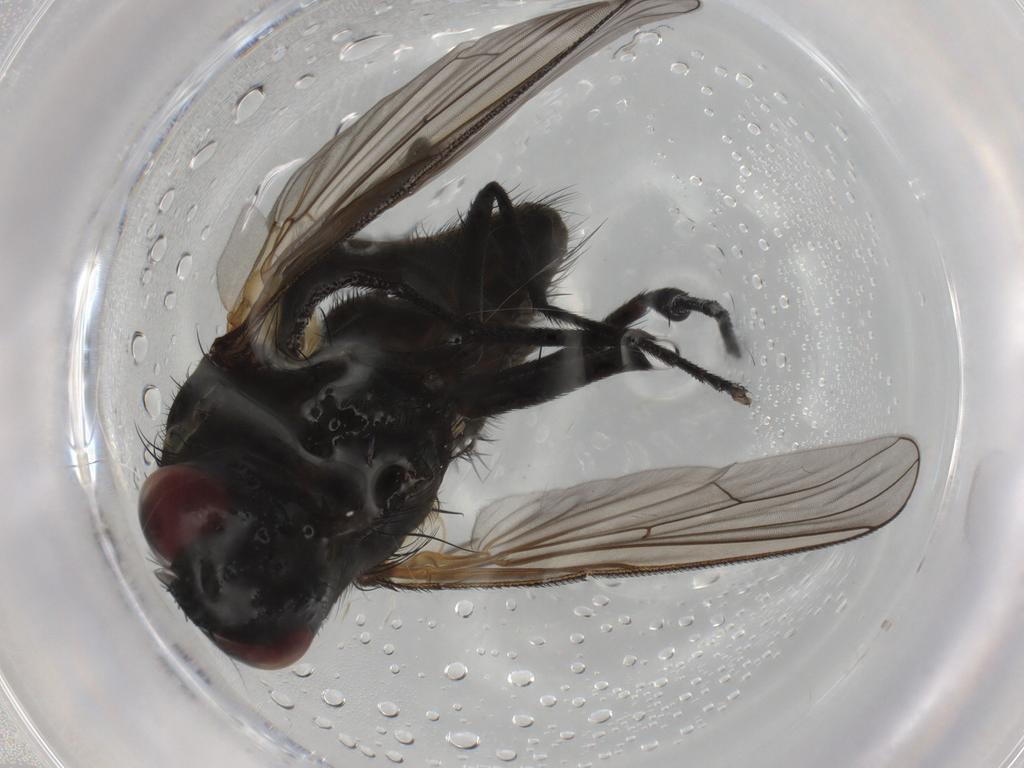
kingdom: Animalia
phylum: Arthropoda
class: Insecta
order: Diptera
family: Muscidae
